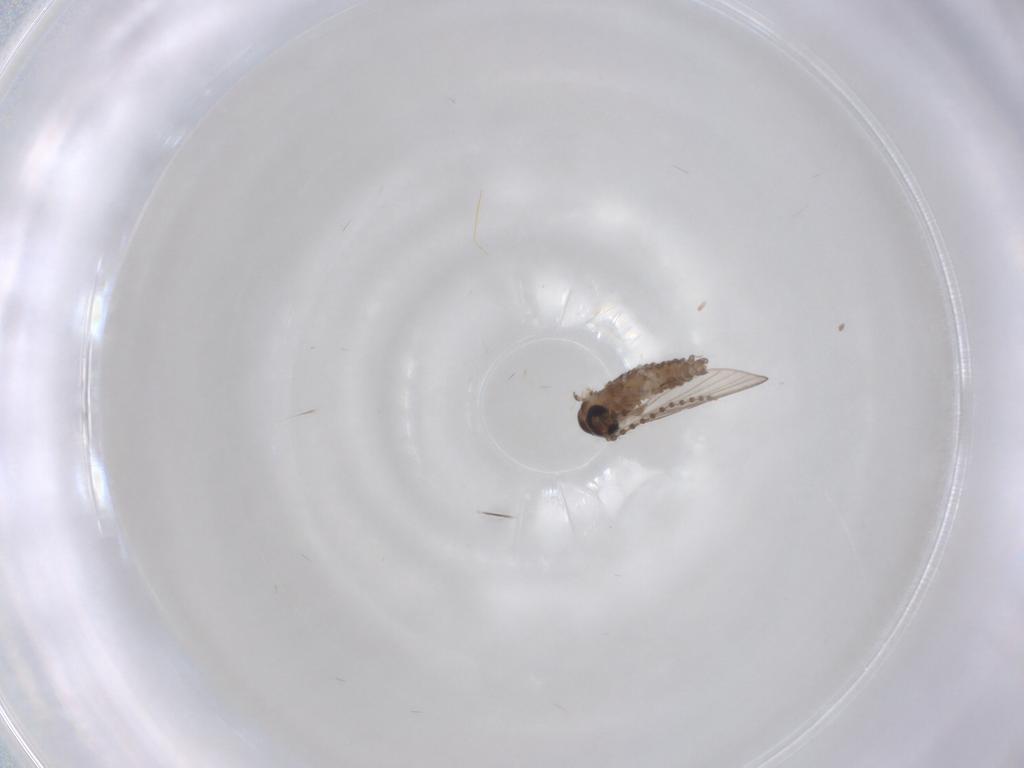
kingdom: Animalia
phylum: Arthropoda
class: Insecta
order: Diptera
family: Psychodidae
